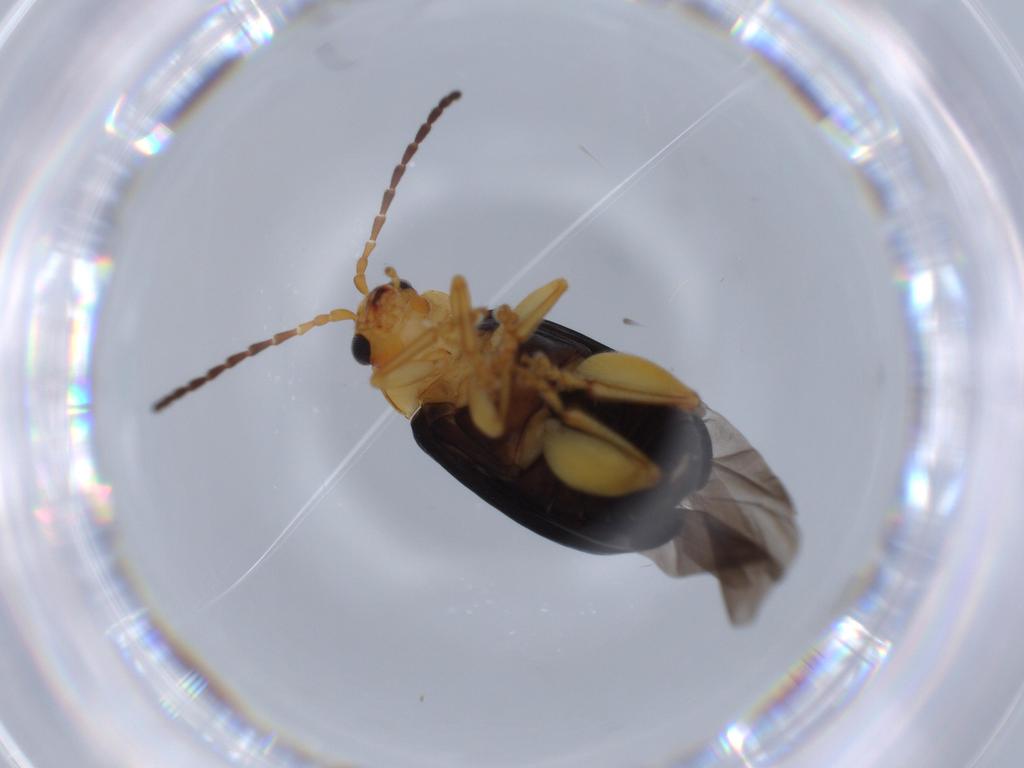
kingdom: Animalia
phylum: Arthropoda
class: Insecta
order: Coleoptera
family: Chrysomelidae
